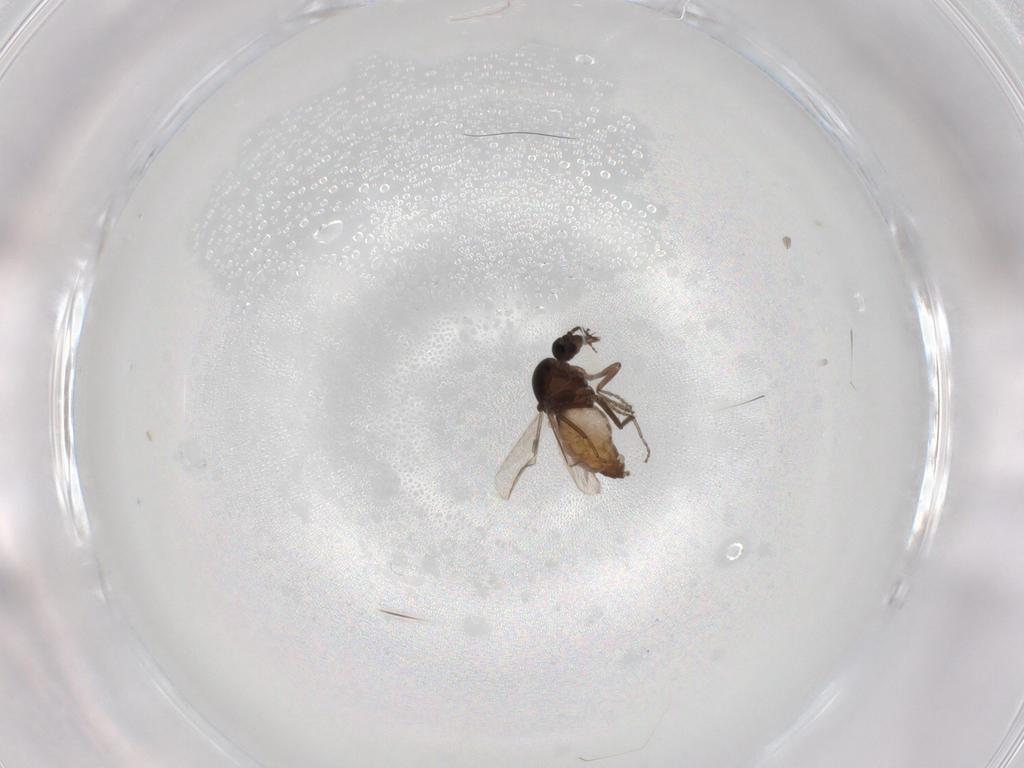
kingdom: Animalia
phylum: Arthropoda
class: Insecta
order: Diptera
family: Ceratopogonidae
